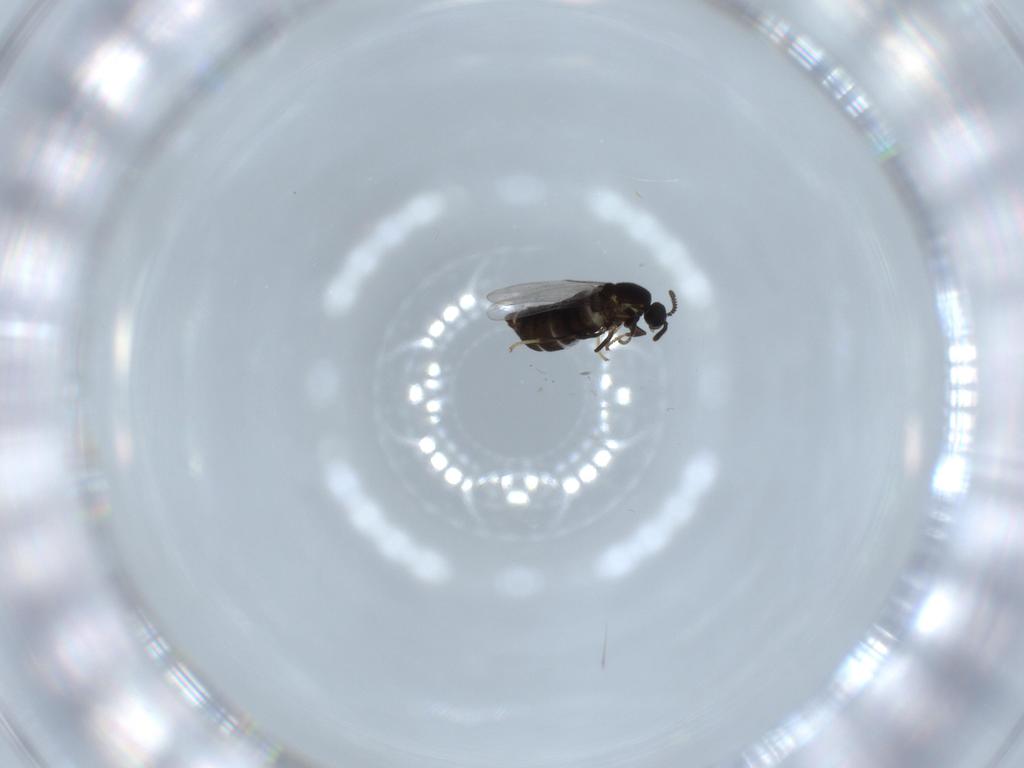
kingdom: Animalia
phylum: Arthropoda
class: Insecta
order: Diptera
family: Scatopsidae
